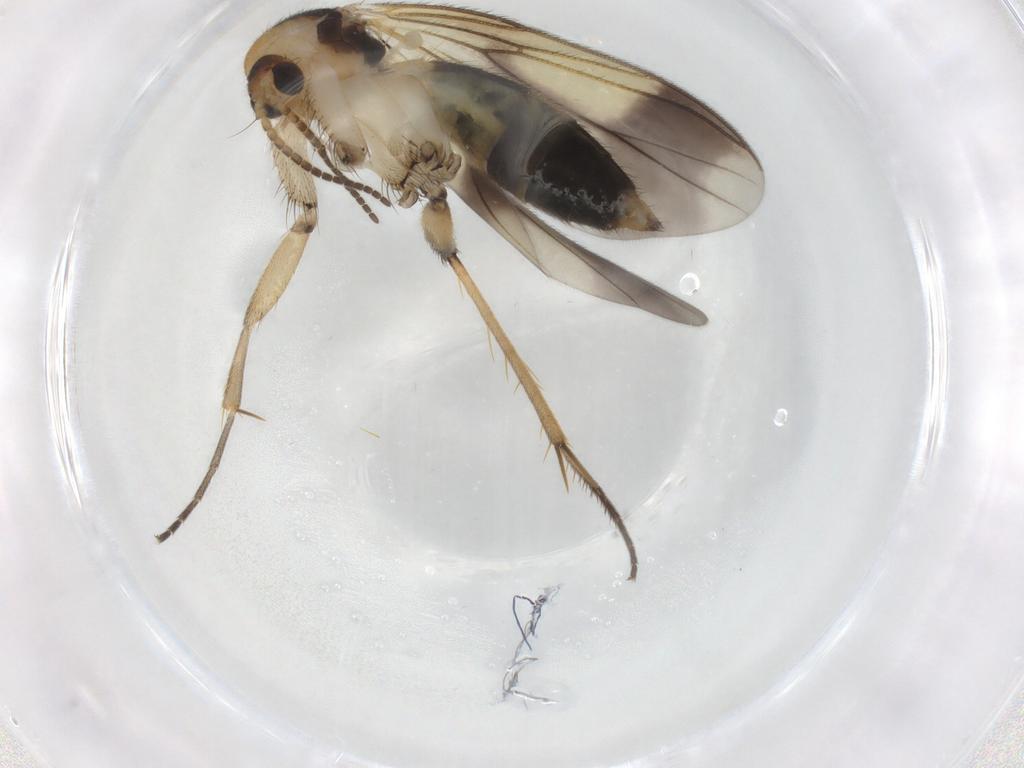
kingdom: Animalia
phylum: Arthropoda
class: Insecta
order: Diptera
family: Mycetophilidae
